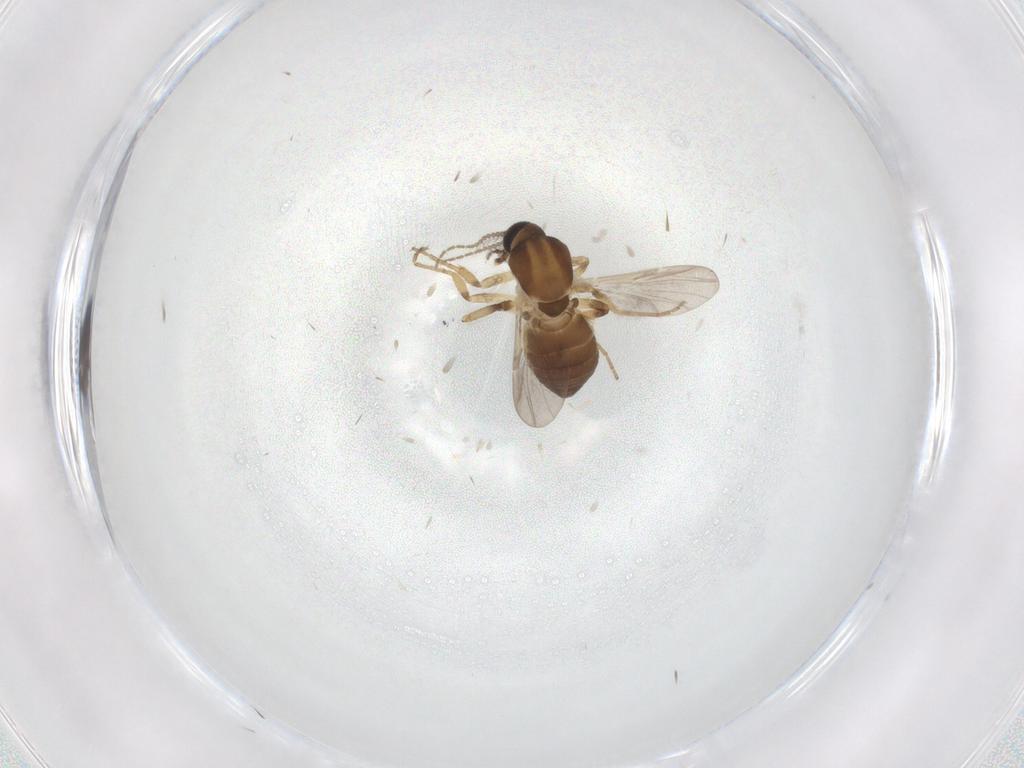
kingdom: Animalia
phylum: Arthropoda
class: Insecta
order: Diptera
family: Ceratopogonidae
